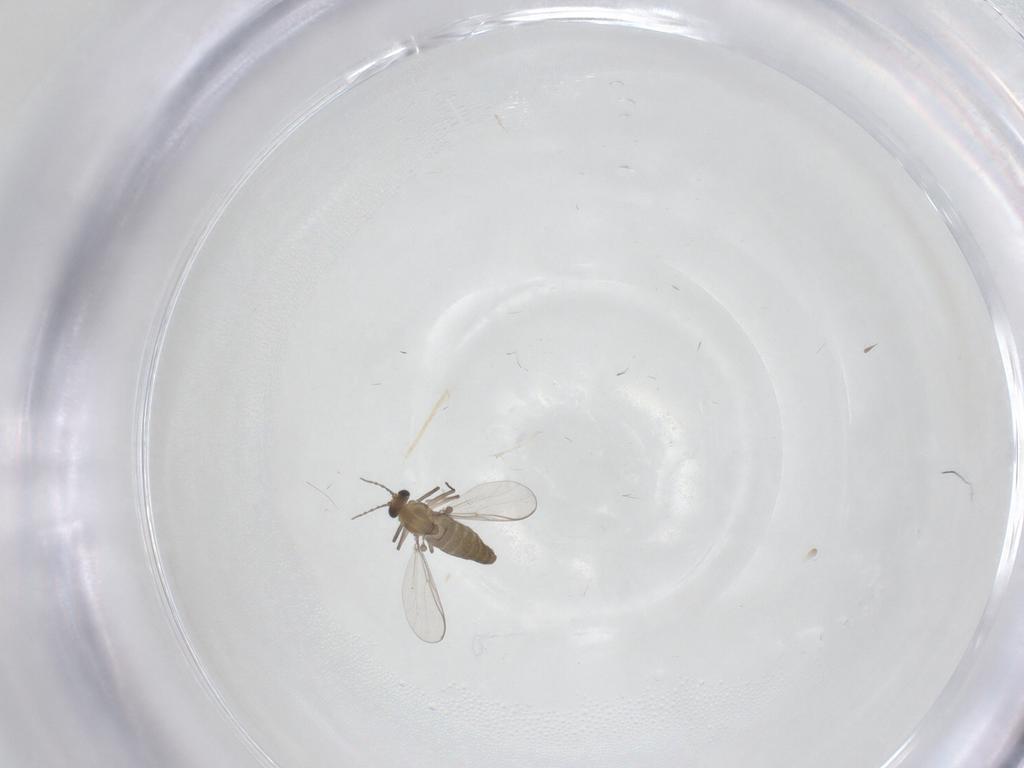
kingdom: Animalia
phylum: Arthropoda
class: Insecta
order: Diptera
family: Chironomidae
